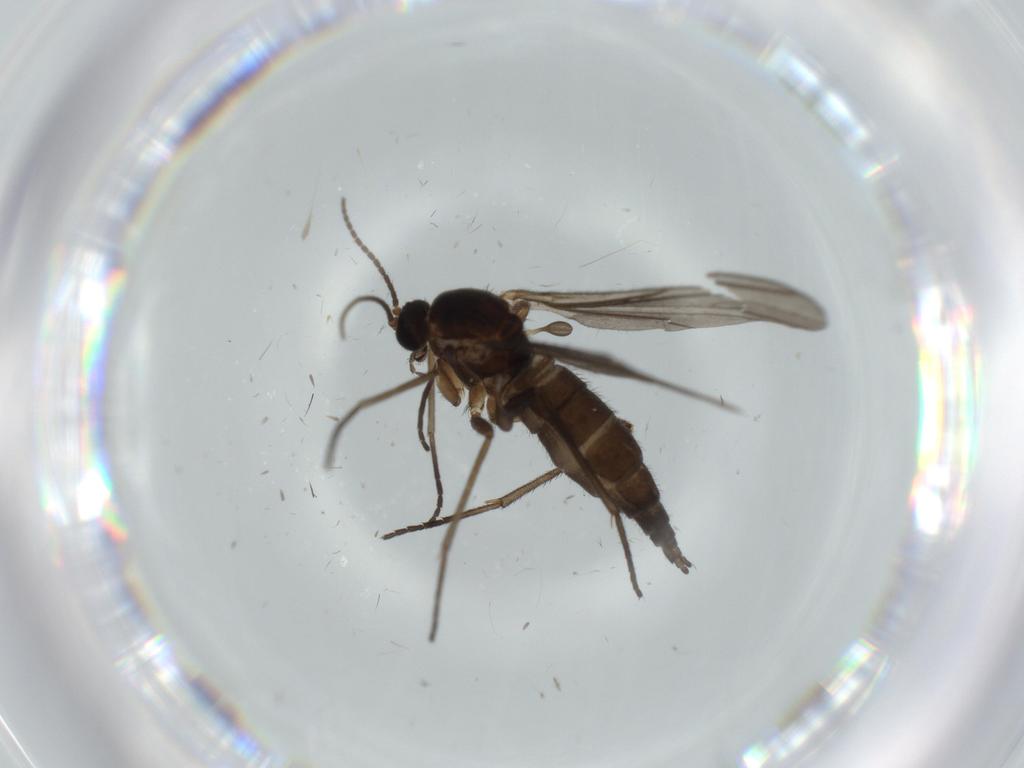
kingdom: Animalia
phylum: Arthropoda
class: Insecta
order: Diptera
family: Sciaridae
